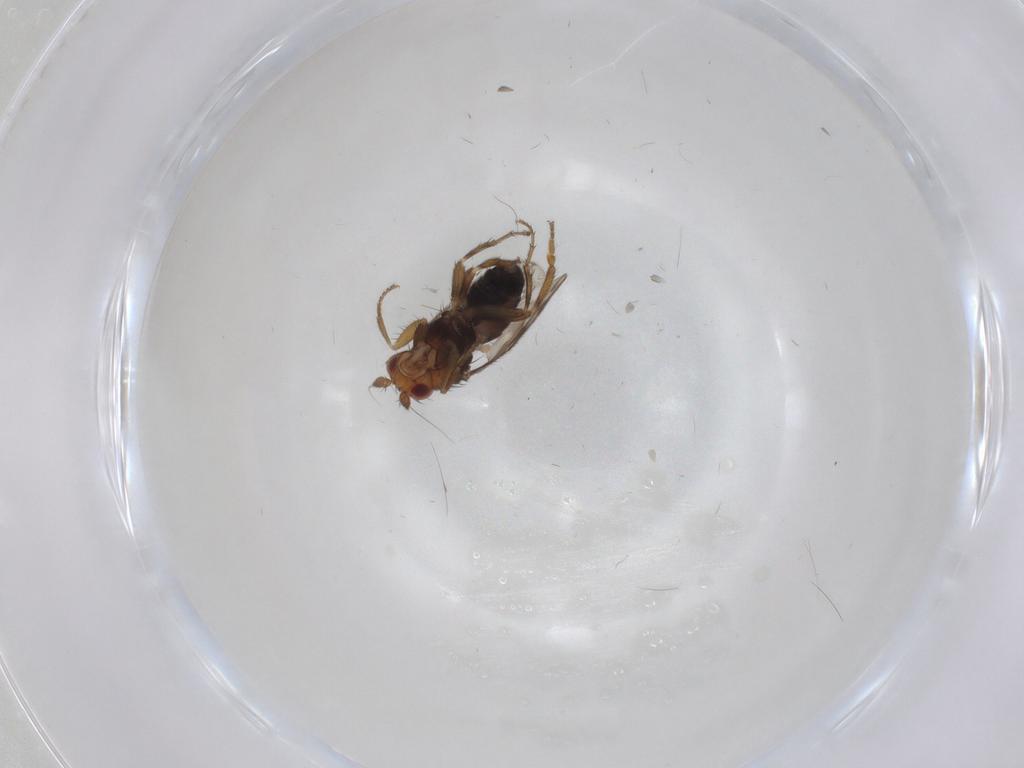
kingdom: Animalia
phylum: Arthropoda
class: Insecta
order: Diptera
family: Sphaeroceridae
